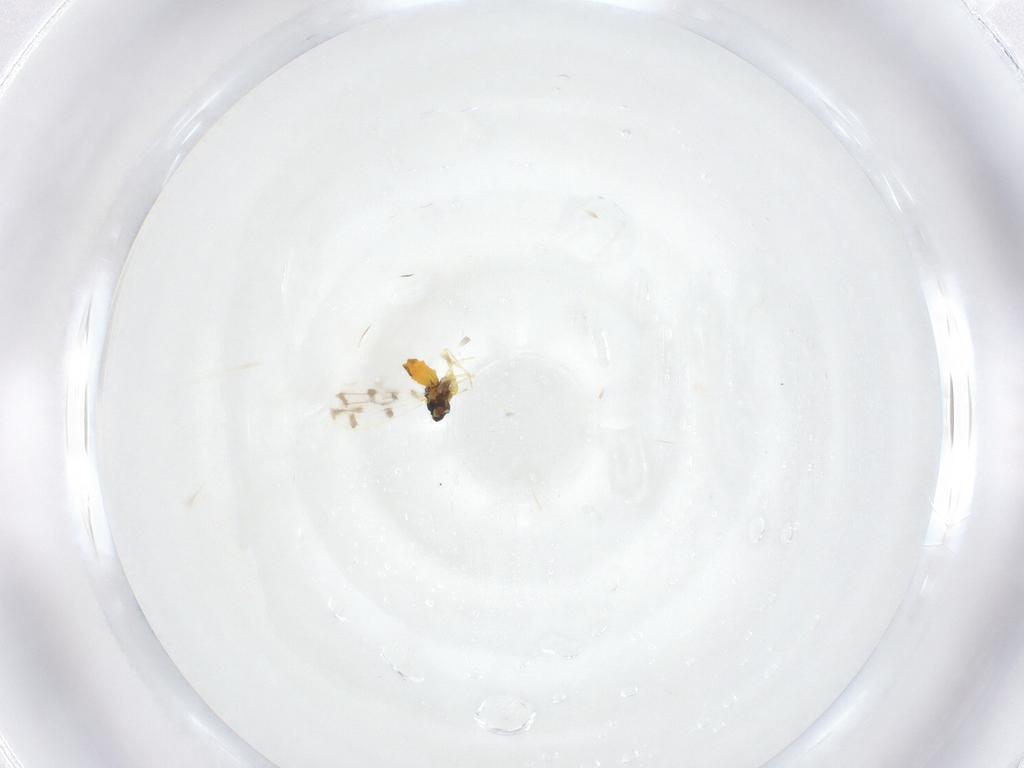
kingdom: Animalia
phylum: Arthropoda
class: Insecta
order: Hemiptera
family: Aleyrodidae
